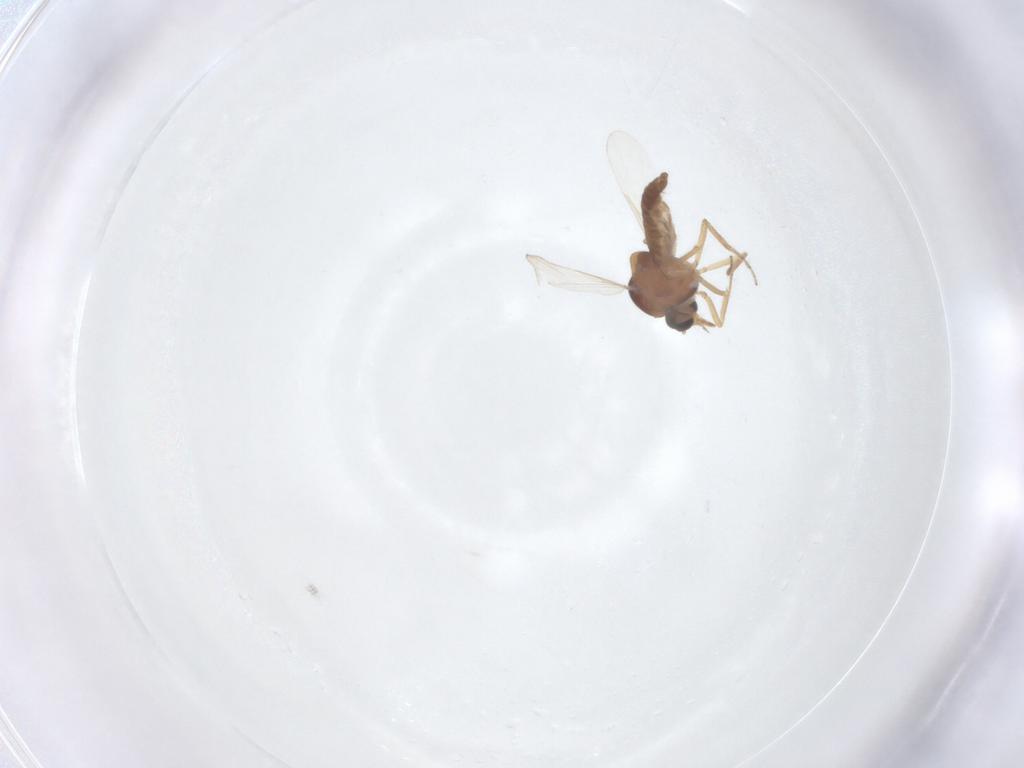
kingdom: Animalia
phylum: Arthropoda
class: Insecta
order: Diptera
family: Ceratopogonidae
